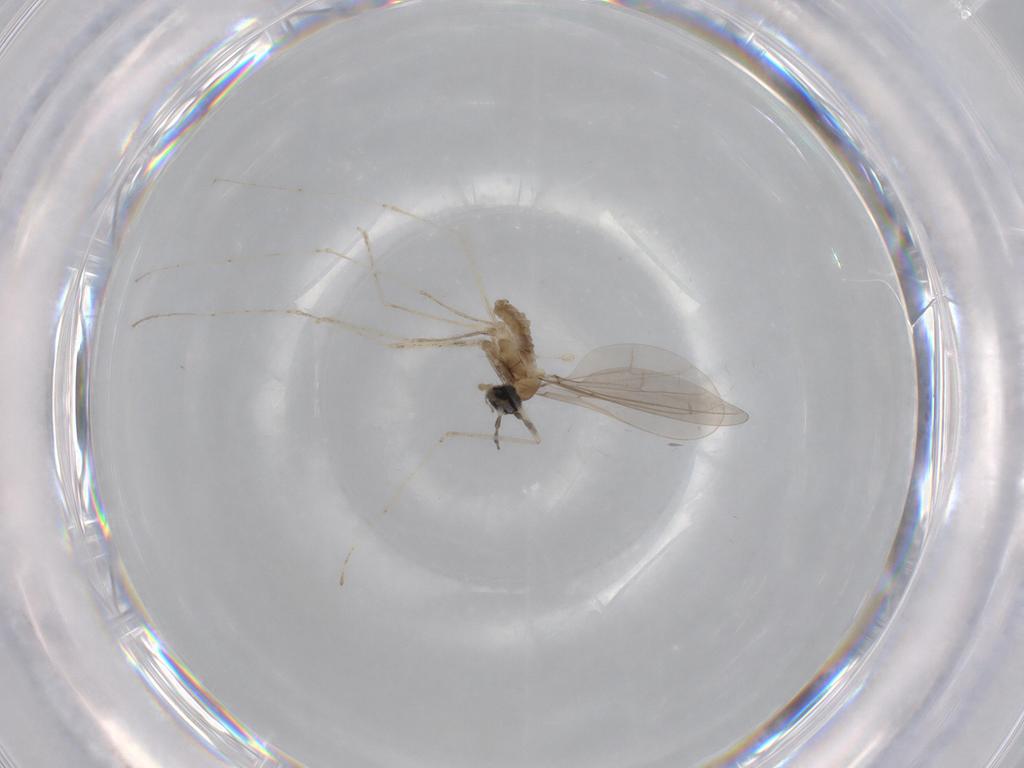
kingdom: Animalia
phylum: Arthropoda
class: Insecta
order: Diptera
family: Cecidomyiidae
